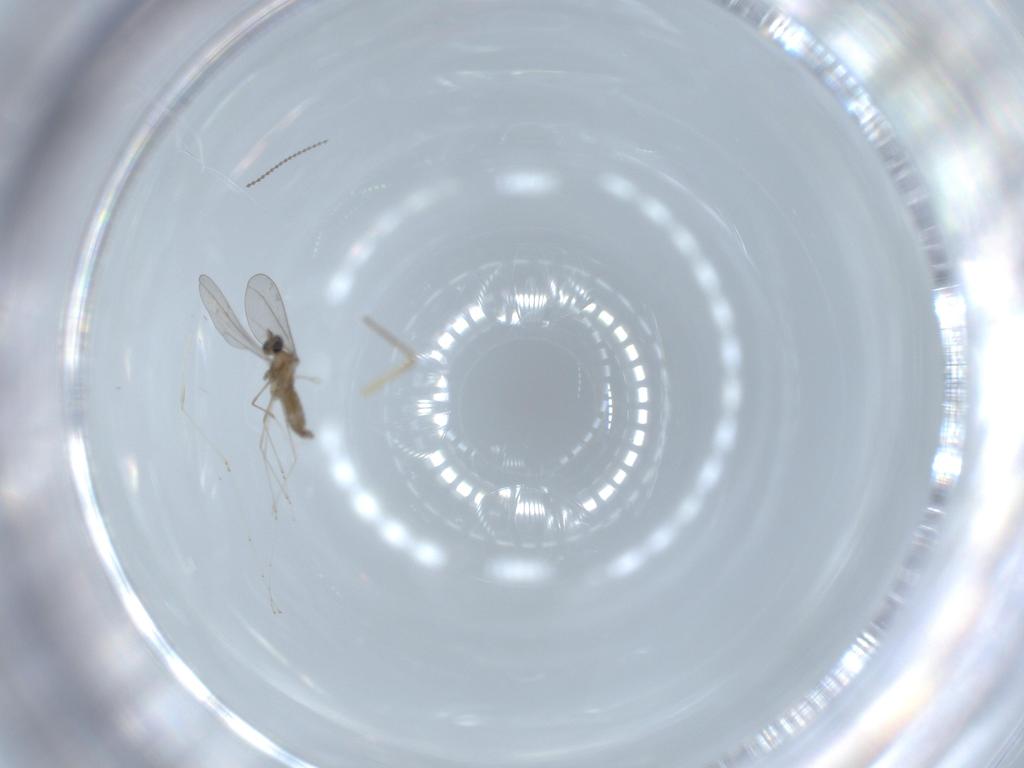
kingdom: Animalia
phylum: Arthropoda
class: Insecta
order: Diptera
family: Cecidomyiidae
